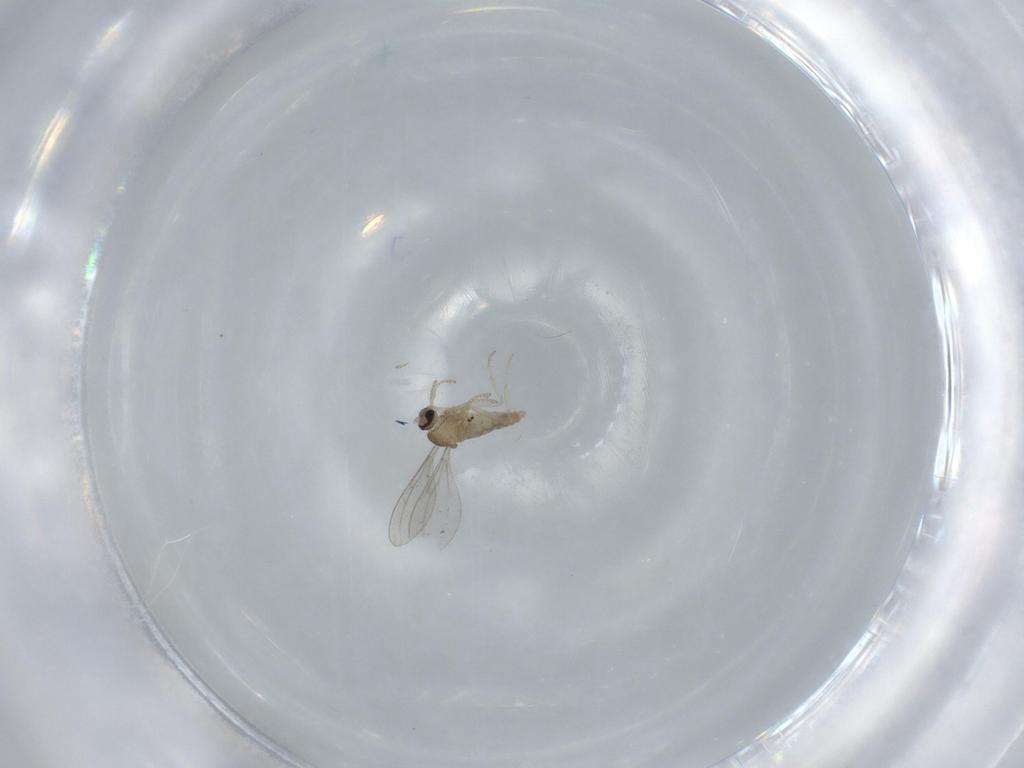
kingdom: Animalia
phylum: Arthropoda
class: Insecta
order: Diptera
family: Cecidomyiidae
